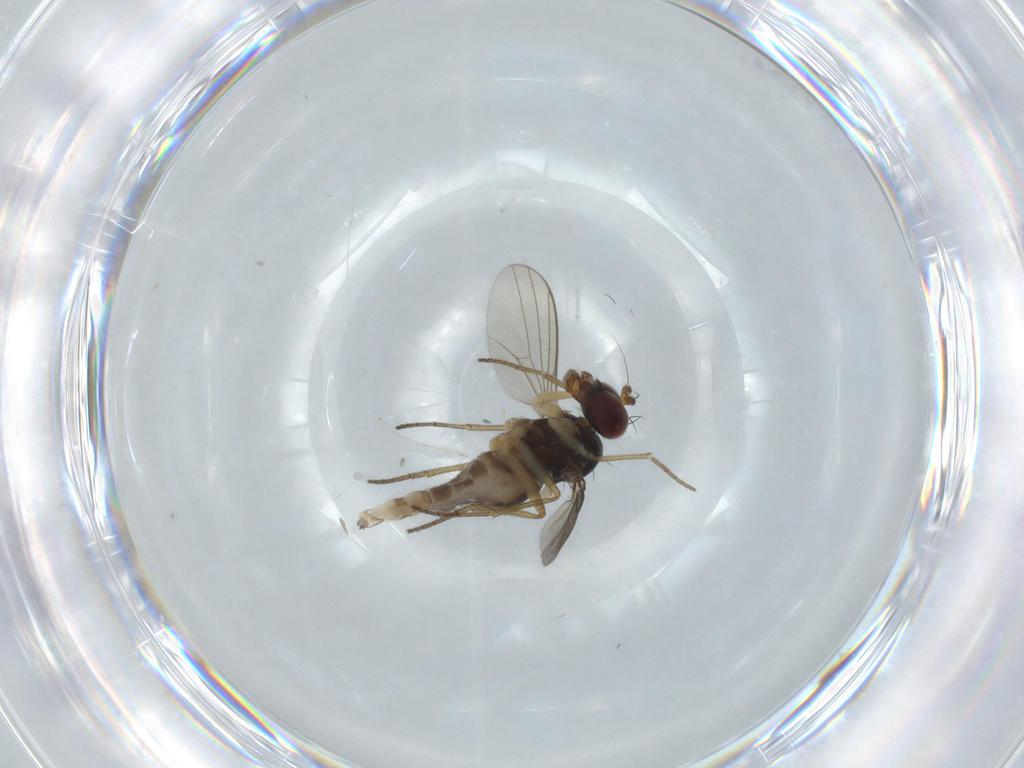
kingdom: Animalia
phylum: Arthropoda
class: Insecta
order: Diptera
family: Dolichopodidae
